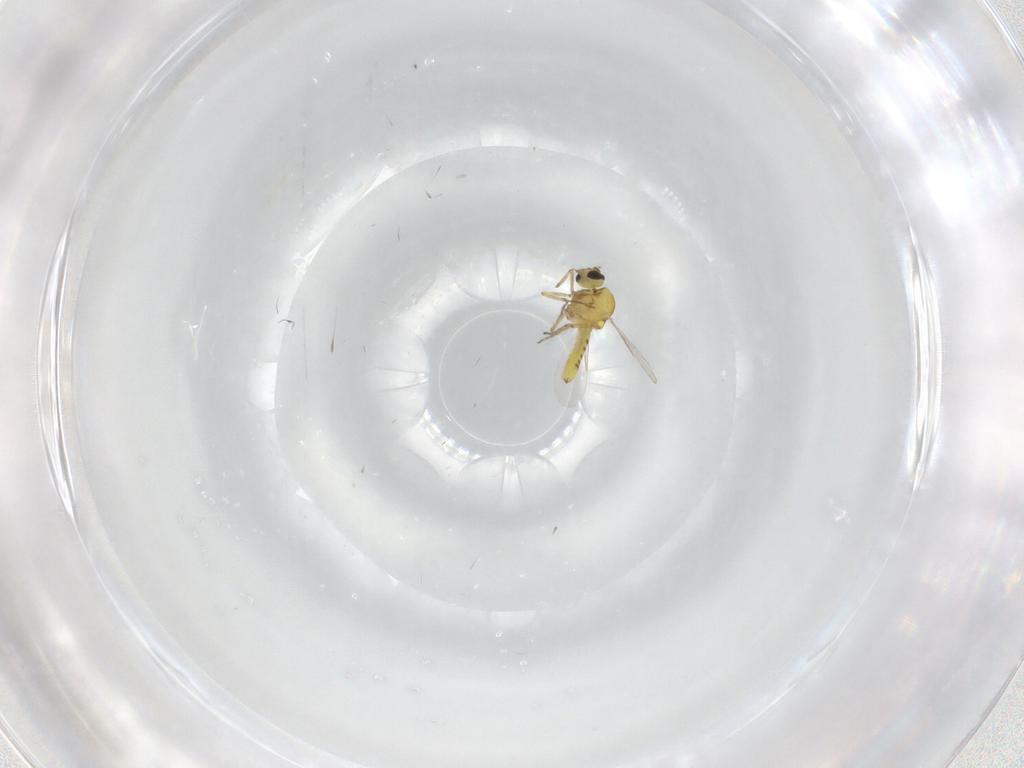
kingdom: Animalia
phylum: Arthropoda
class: Insecta
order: Diptera
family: Ceratopogonidae
